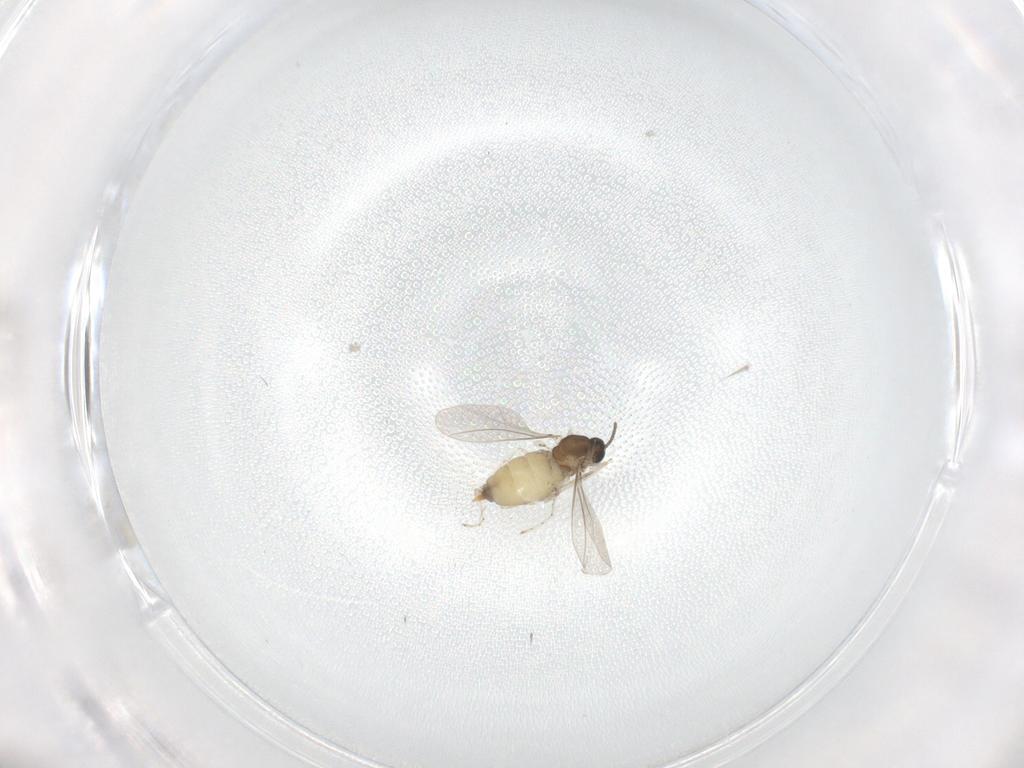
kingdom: Animalia
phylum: Arthropoda
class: Insecta
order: Diptera
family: Cecidomyiidae
